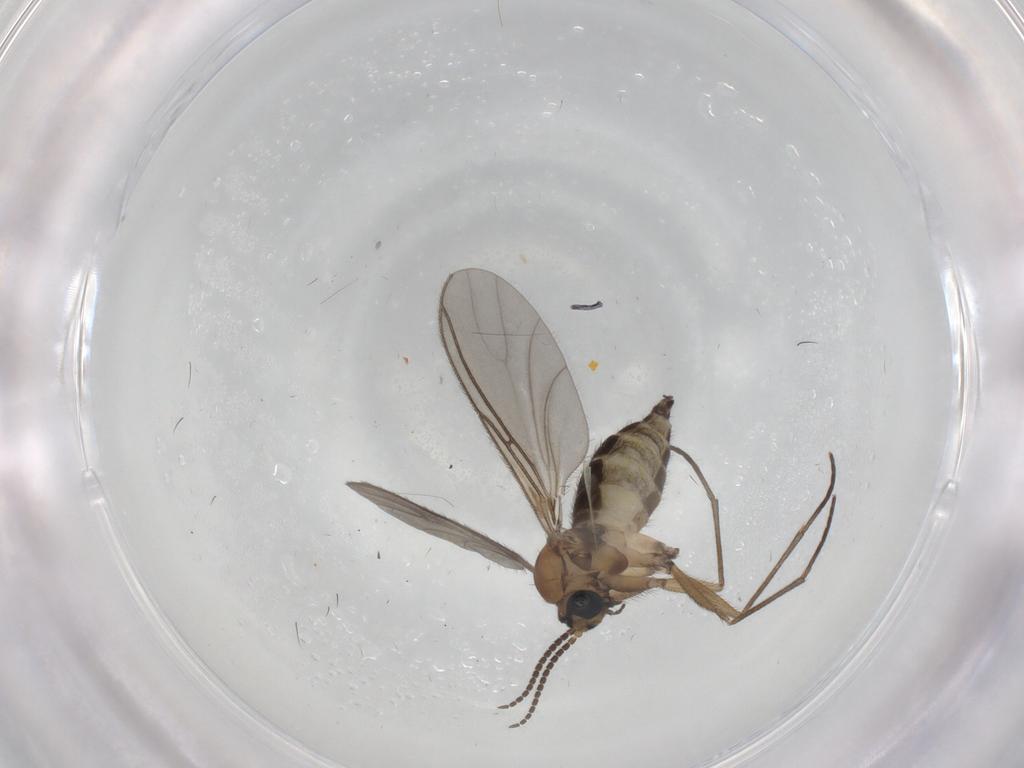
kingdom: Animalia
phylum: Arthropoda
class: Insecta
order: Diptera
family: Sciaridae
